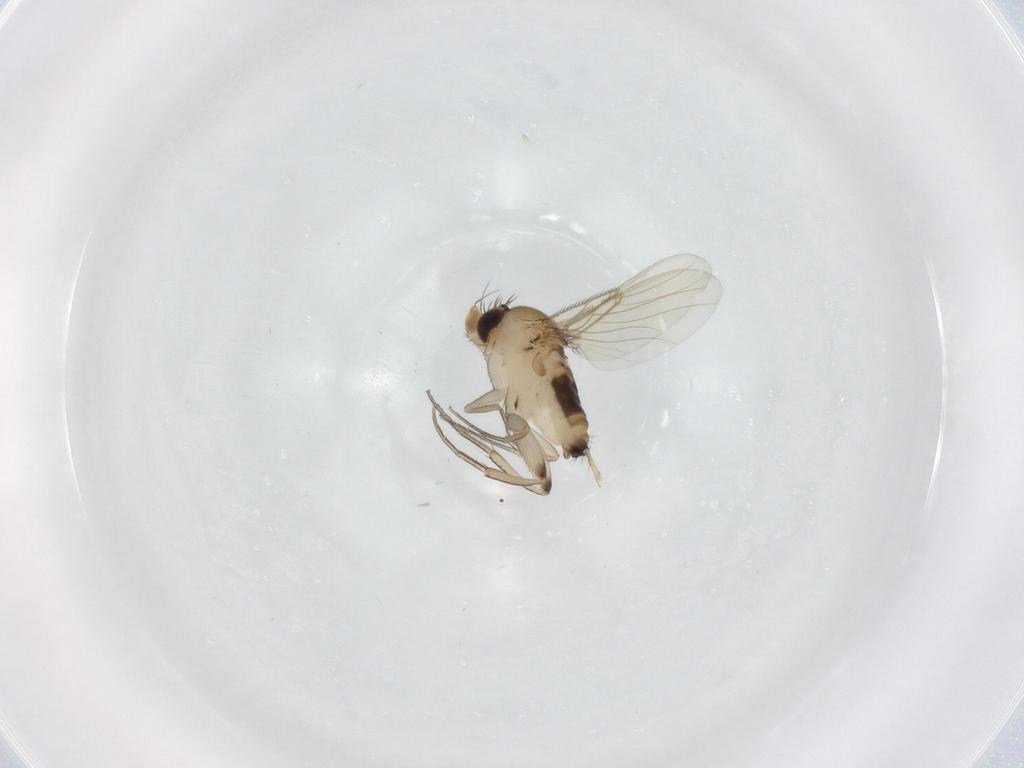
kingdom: Animalia
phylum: Arthropoda
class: Insecta
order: Diptera
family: Phoridae
